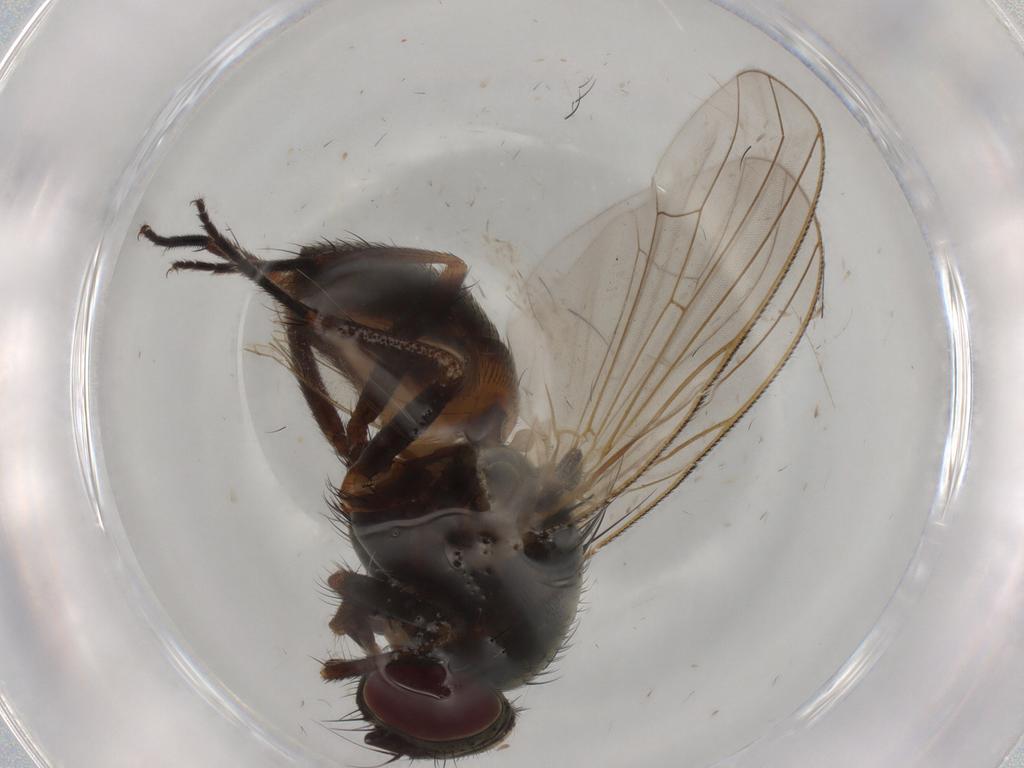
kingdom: Animalia
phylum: Arthropoda
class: Insecta
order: Diptera
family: Fannia
